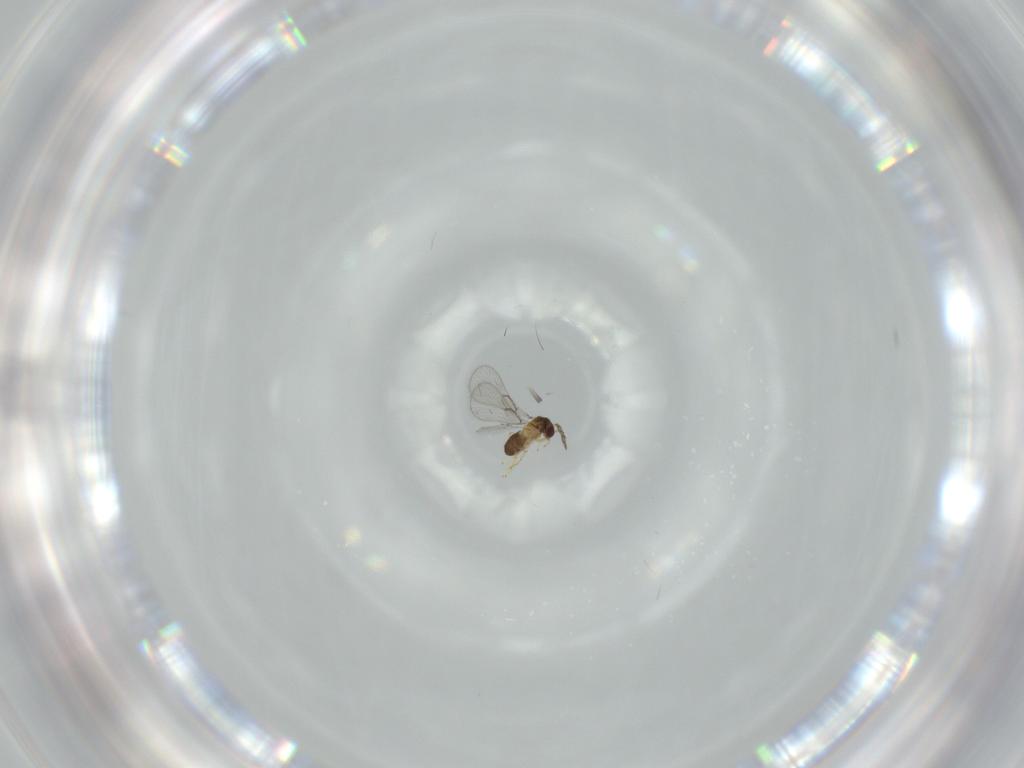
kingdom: Animalia
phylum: Arthropoda
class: Insecta
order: Hymenoptera
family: Trichogrammatidae
